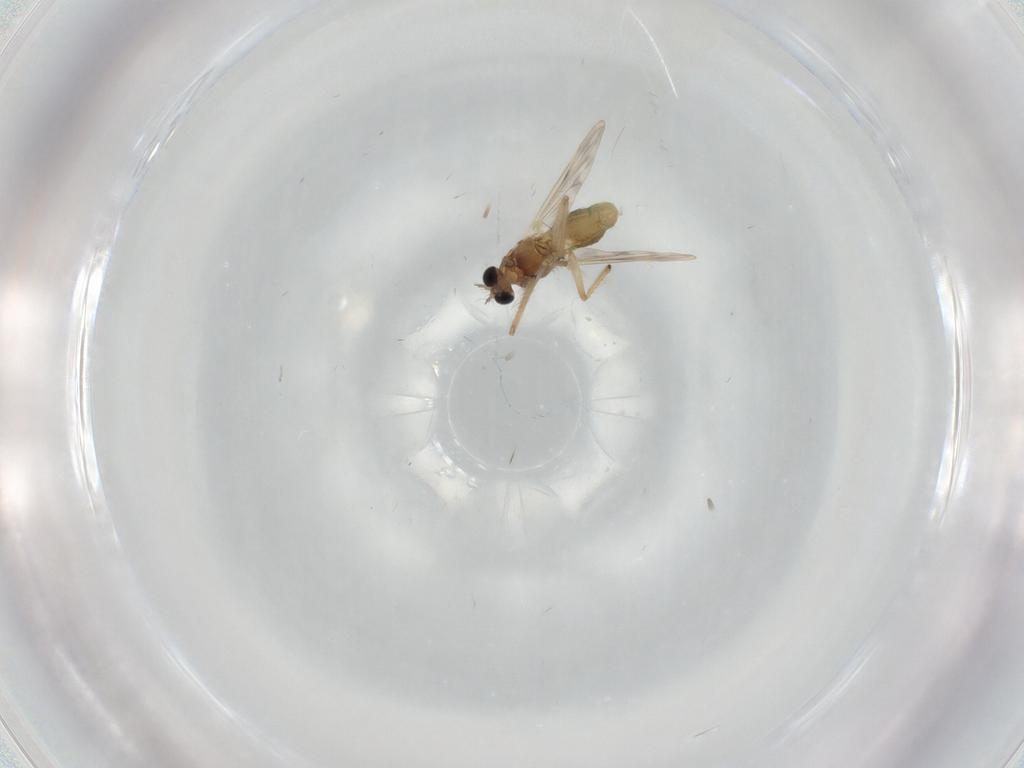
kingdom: Animalia
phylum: Arthropoda
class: Insecta
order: Diptera
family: Chironomidae
